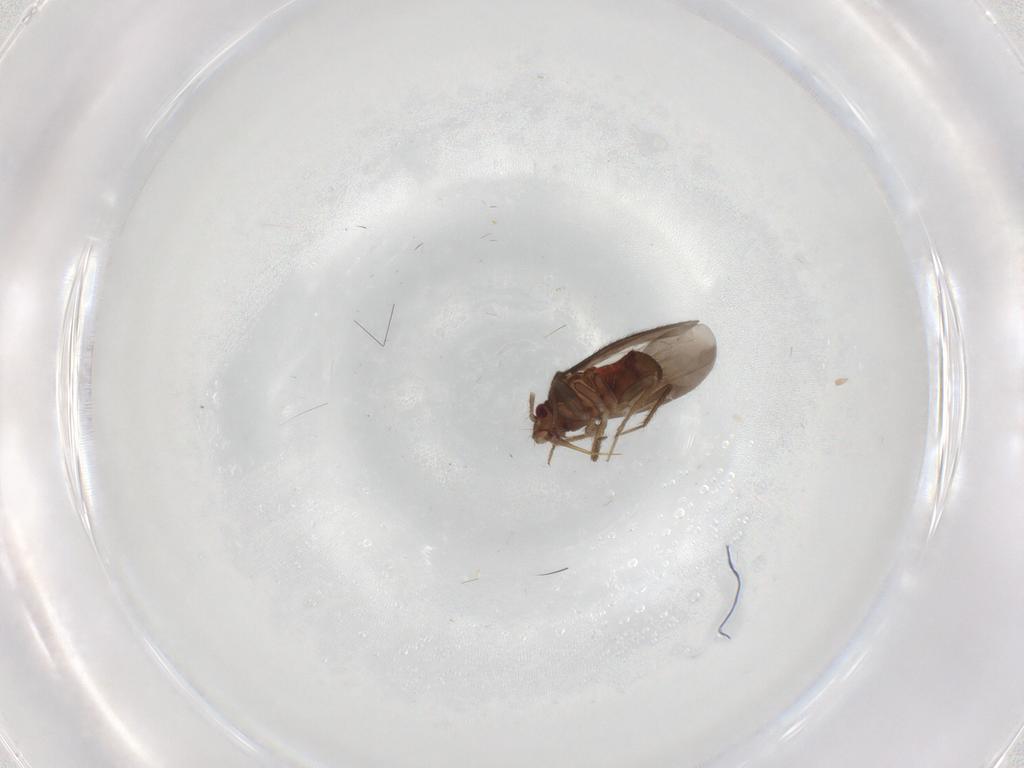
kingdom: Animalia
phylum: Arthropoda
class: Insecta
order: Hemiptera
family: Ceratocombidae
